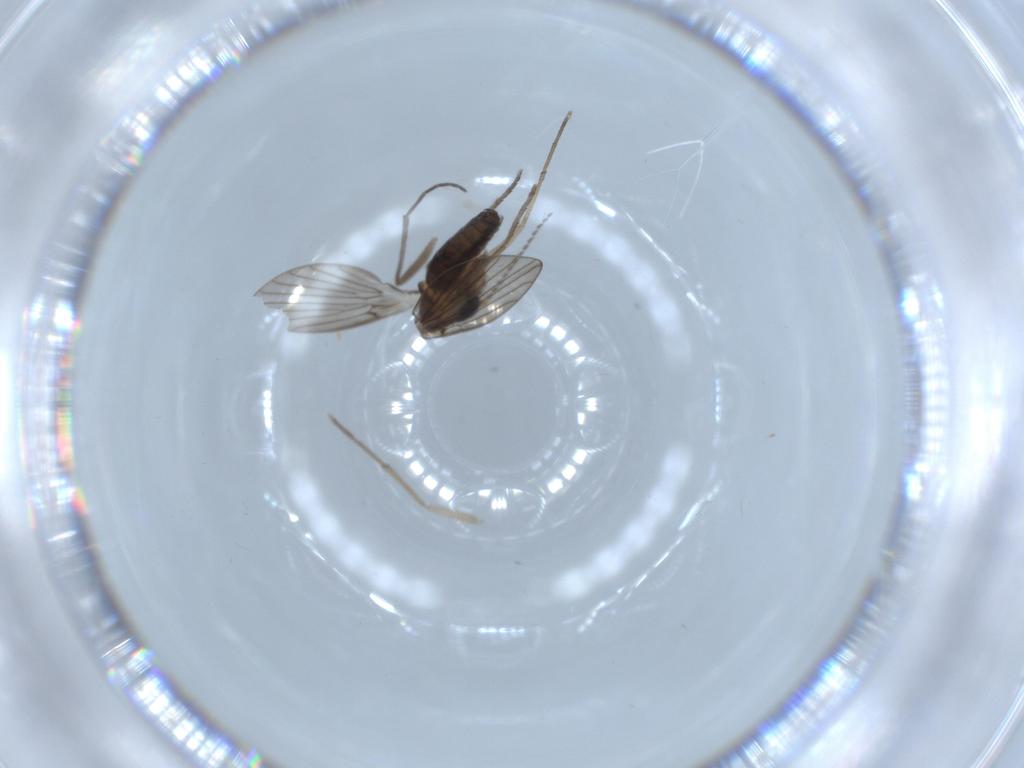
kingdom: Animalia
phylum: Arthropoda
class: Insecta
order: Diptera
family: Psychodidae
